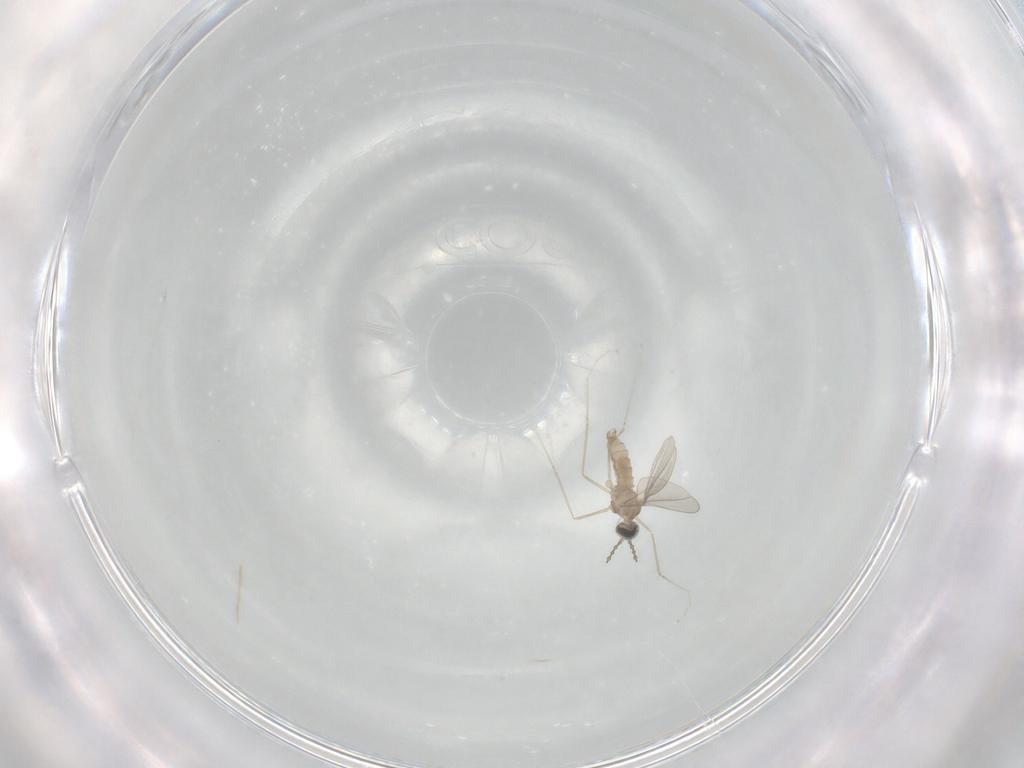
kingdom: Animalia
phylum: Arthropoda
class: Insecta
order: Diptera
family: Cecidomyiidae
